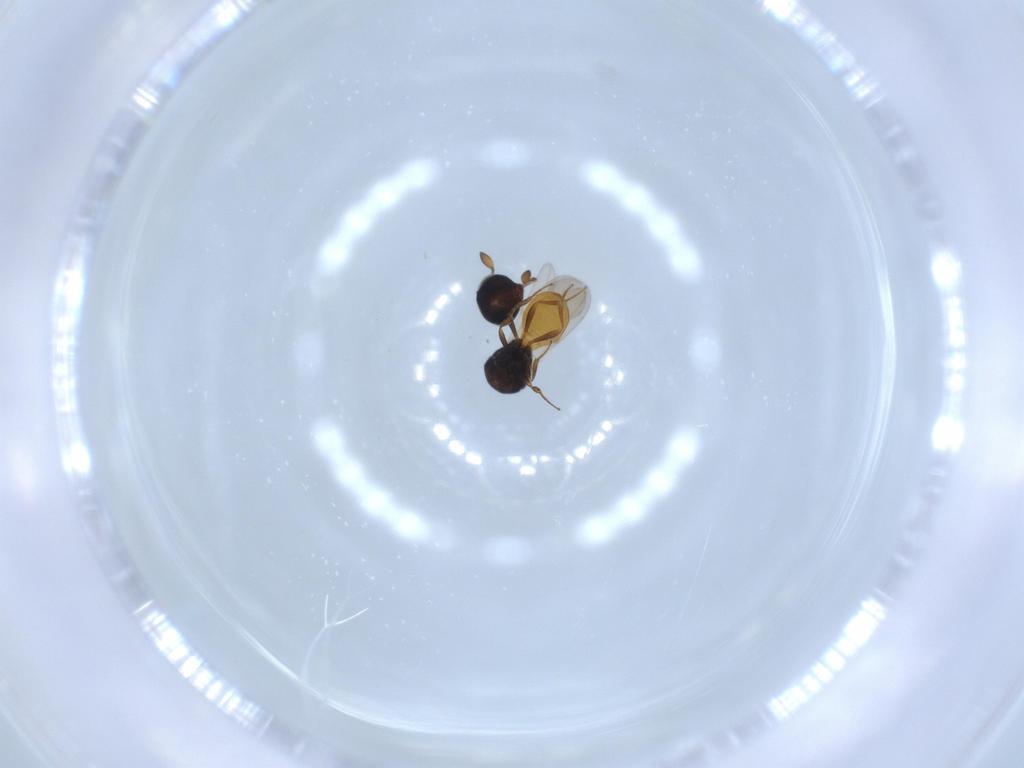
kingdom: Animalia
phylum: Arthropoda
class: Insecta
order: Hymenoptera
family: Scelionidae
